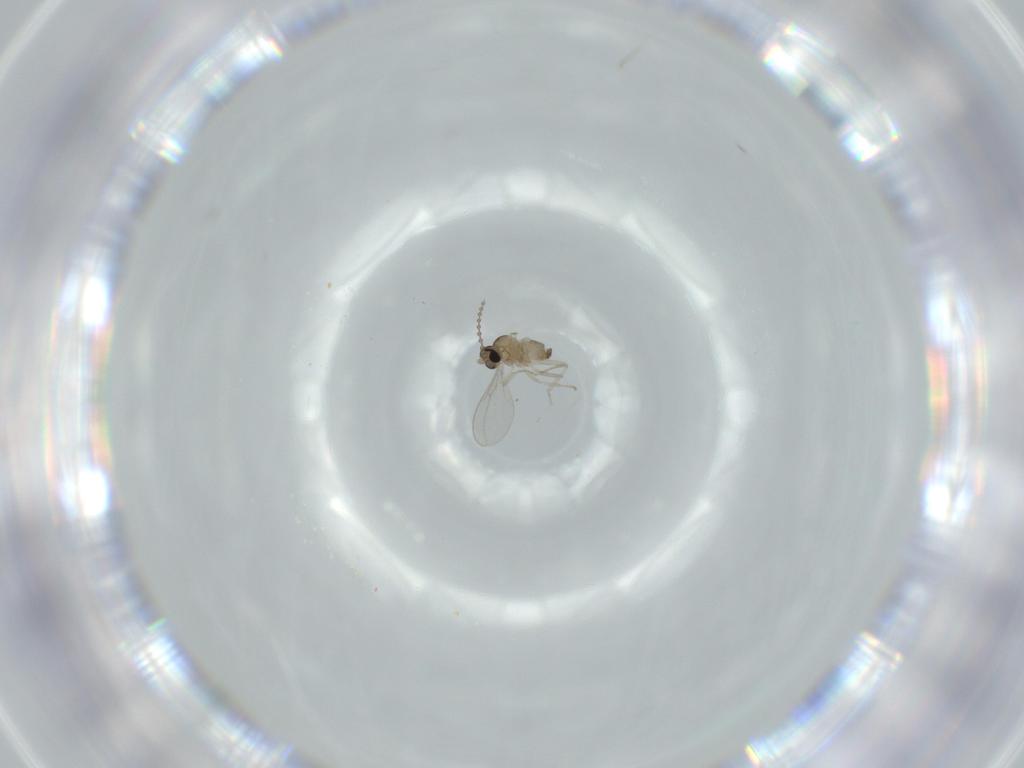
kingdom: Animalia
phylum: Arthropoda
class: Insecta
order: Diptera
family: Cecidomyiidae
